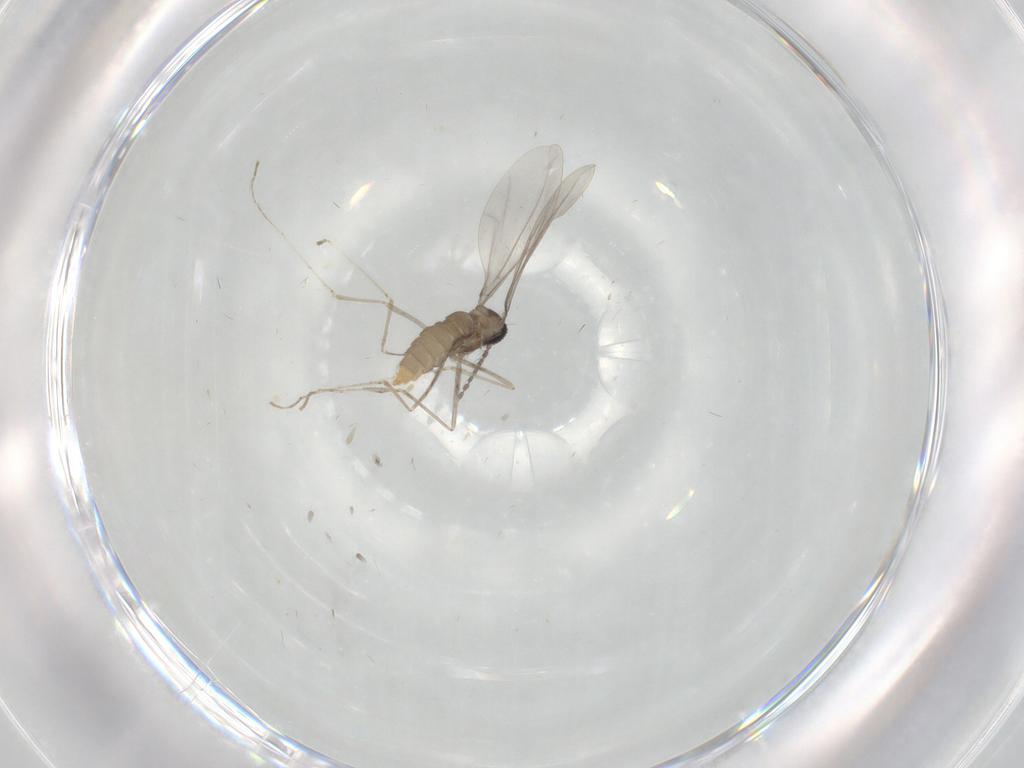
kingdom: Animalia
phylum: Arthropoda
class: Insecta
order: Diptera
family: Cecidomyiidae
